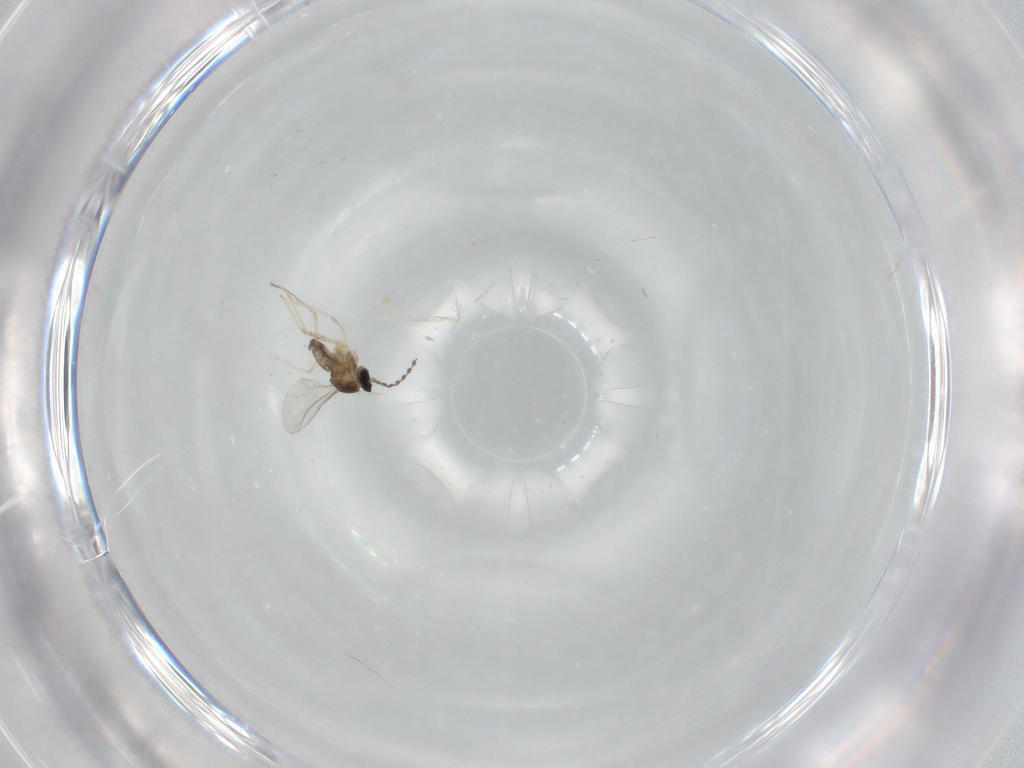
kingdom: Animalia
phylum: Arthropoda
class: Insecta
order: Diptera
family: Cecidomyiidae
